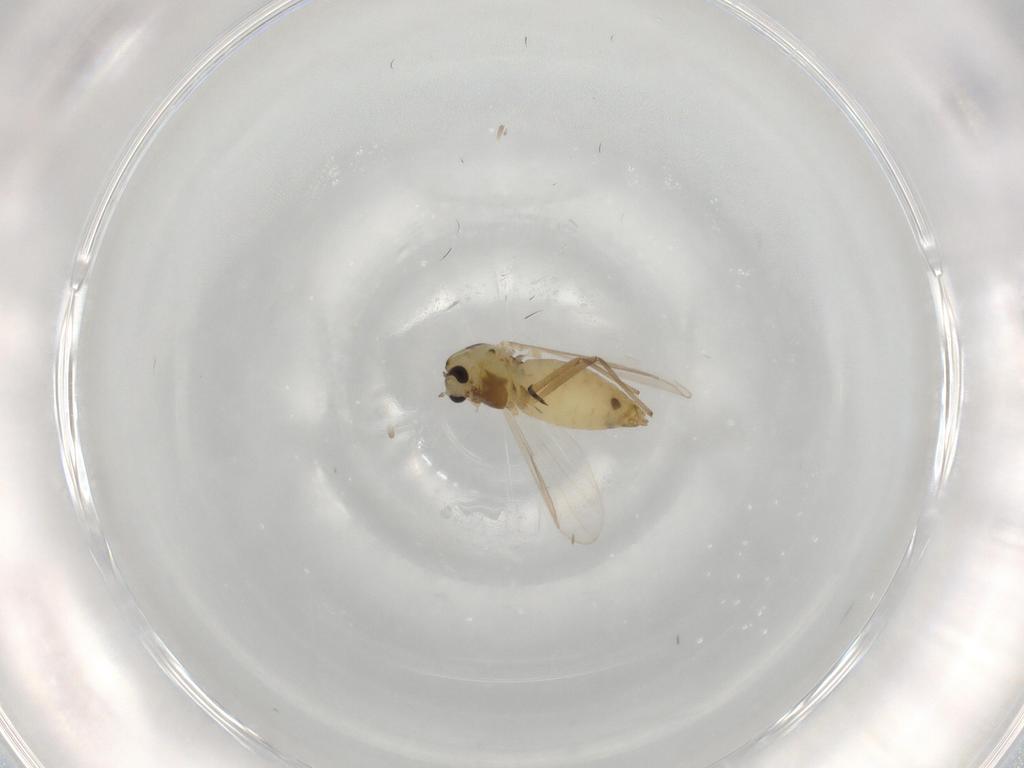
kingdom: Animalia
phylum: Arthropoda
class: Insecta
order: Diptera
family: Chironomidae
